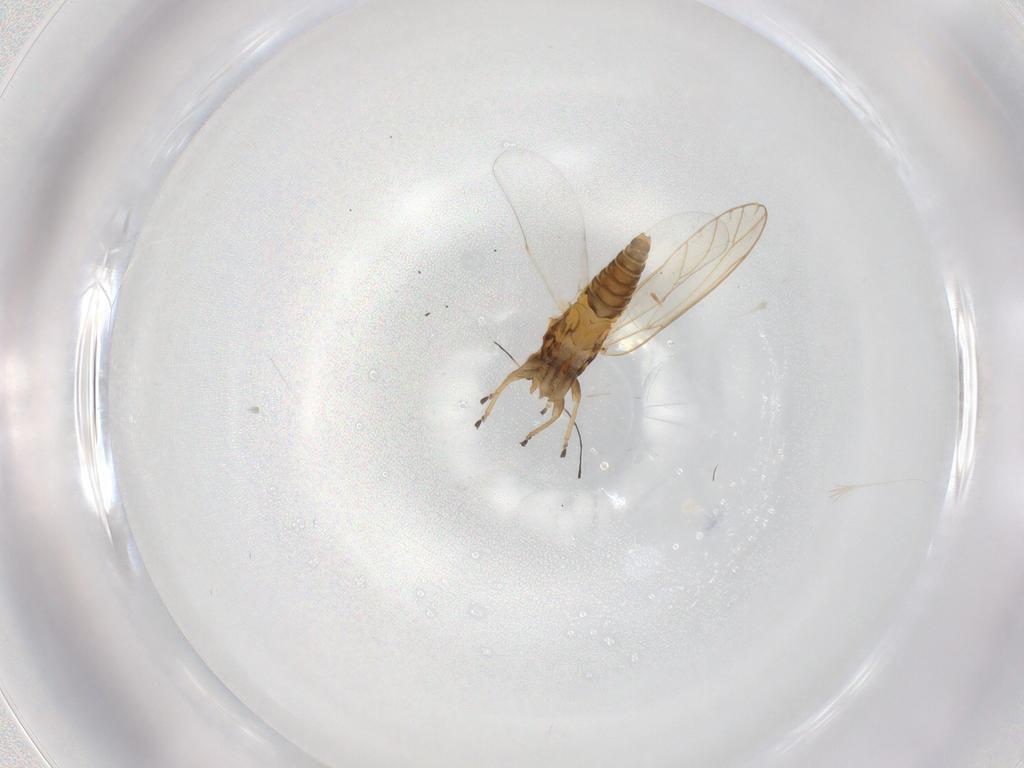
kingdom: Animalia
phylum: Arthropoda
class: Insecta
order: Hemiptera
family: Triozidae
